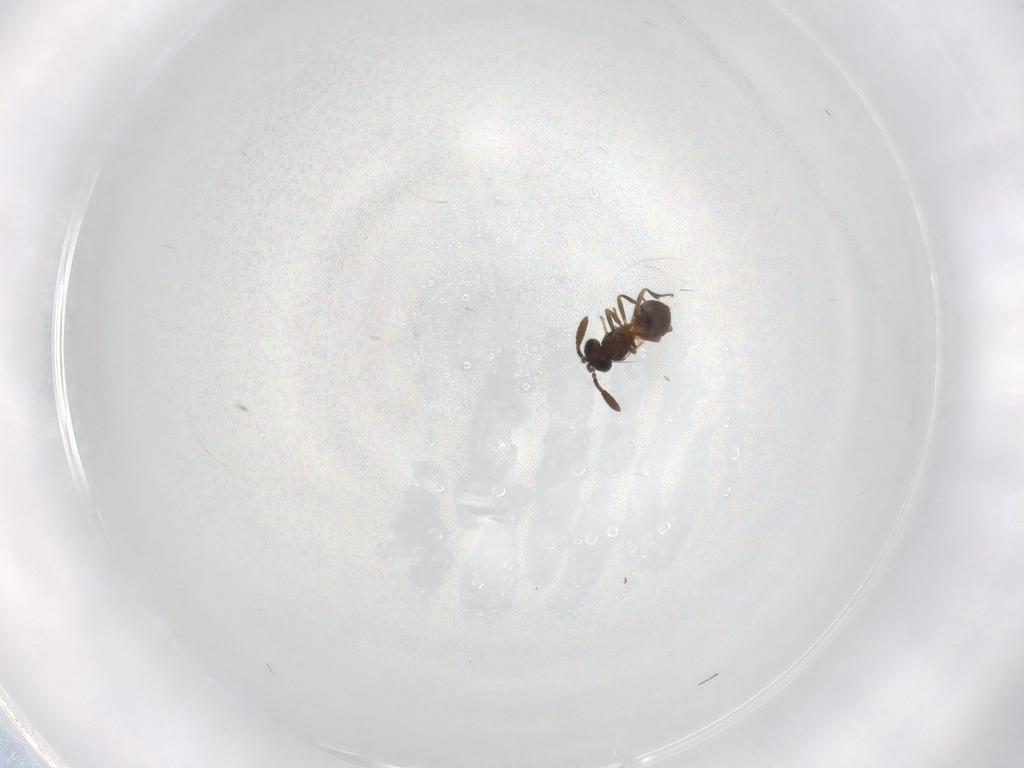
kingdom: Animalia
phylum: Arthropoda
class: Insecta
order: Hymenoptera
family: Scelionidae
